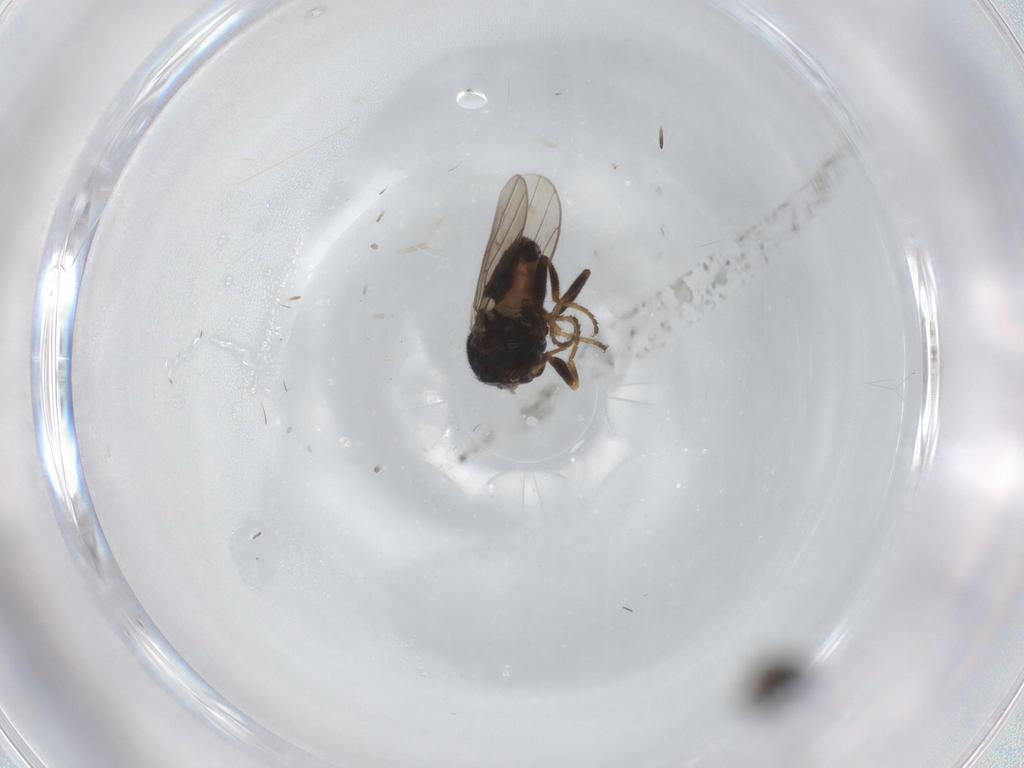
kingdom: Animalia
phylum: Arthropoda
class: Insecta
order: Diptera
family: Chloropidae
